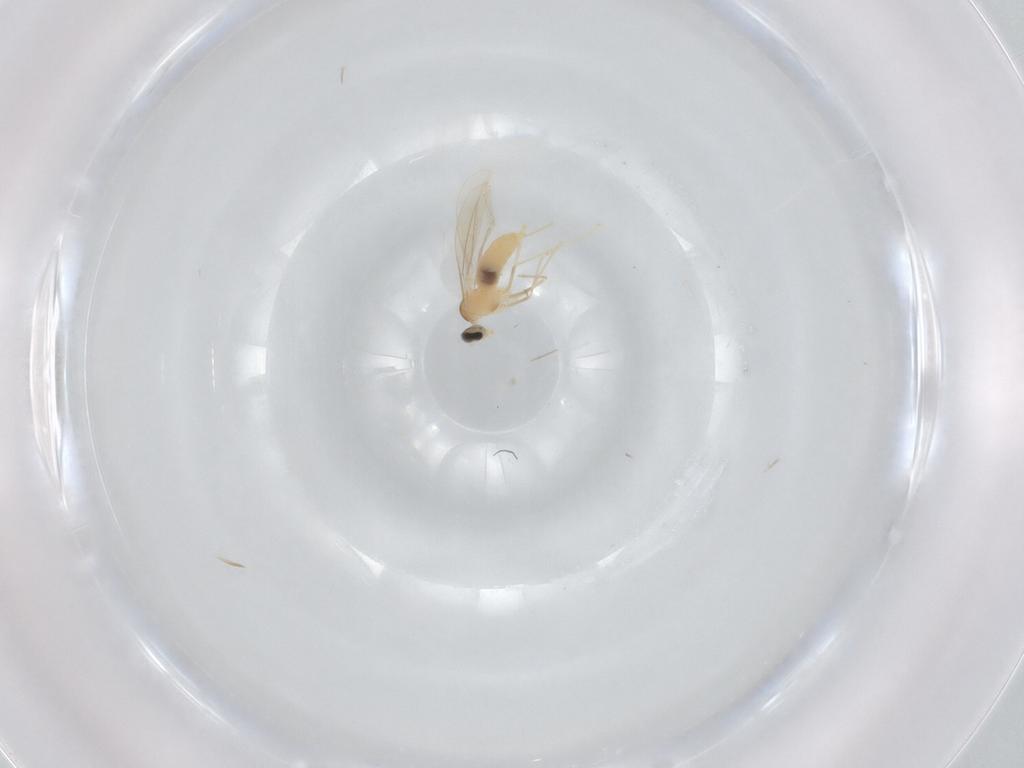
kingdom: Animalia
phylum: Arthropoda
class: Insecta
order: Diptera
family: Cecidomyiidae
